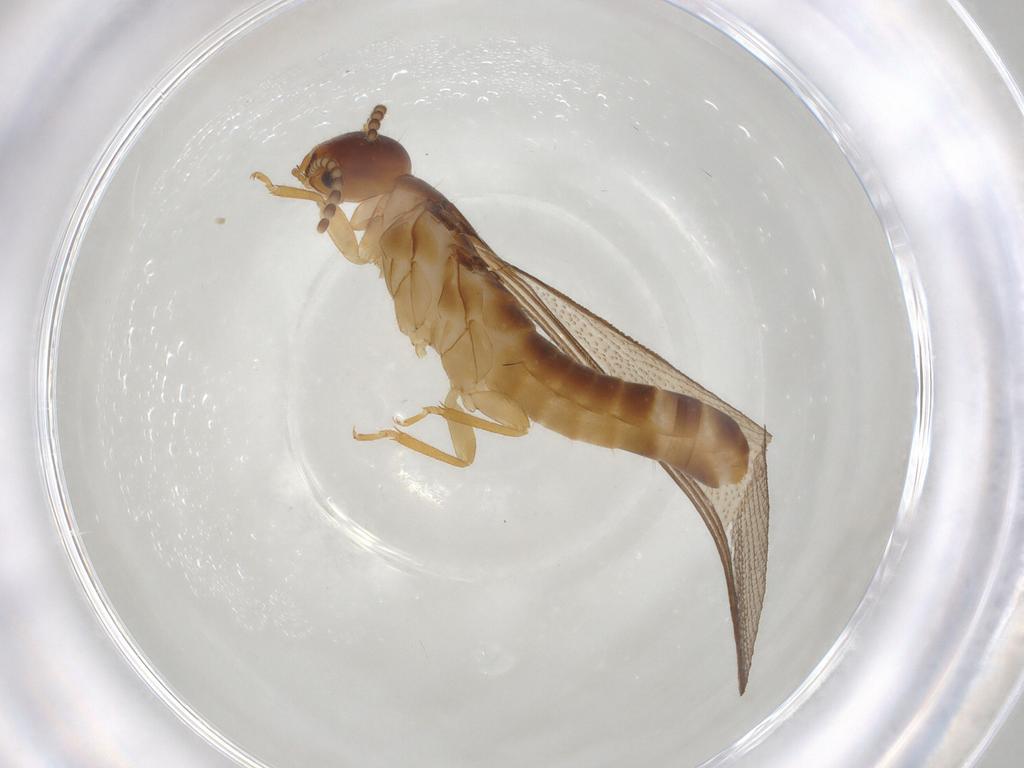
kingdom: Animalia
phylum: Arthropoda
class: Insecta
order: Blattodea
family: Kalotermitidae
